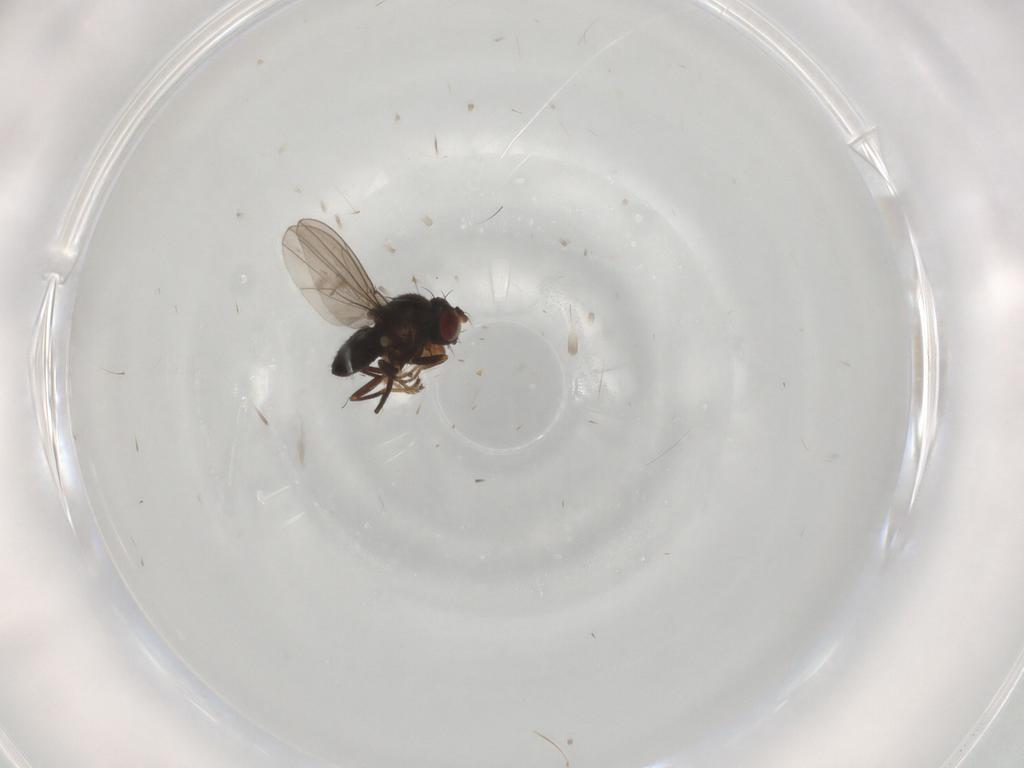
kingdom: Animalia
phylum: Arthropoda
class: Insecta
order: Diptera
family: Ephydridae
